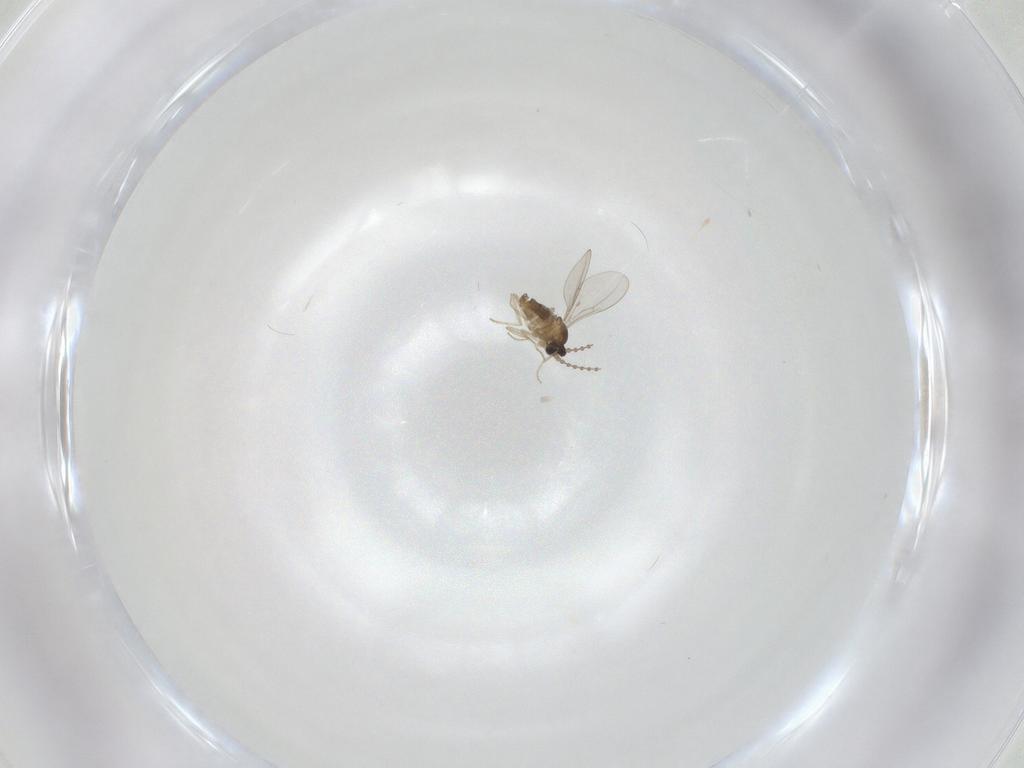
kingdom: Animalia
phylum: Arthropoda
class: Insecta
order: Diptera
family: Cecidomyiidae
